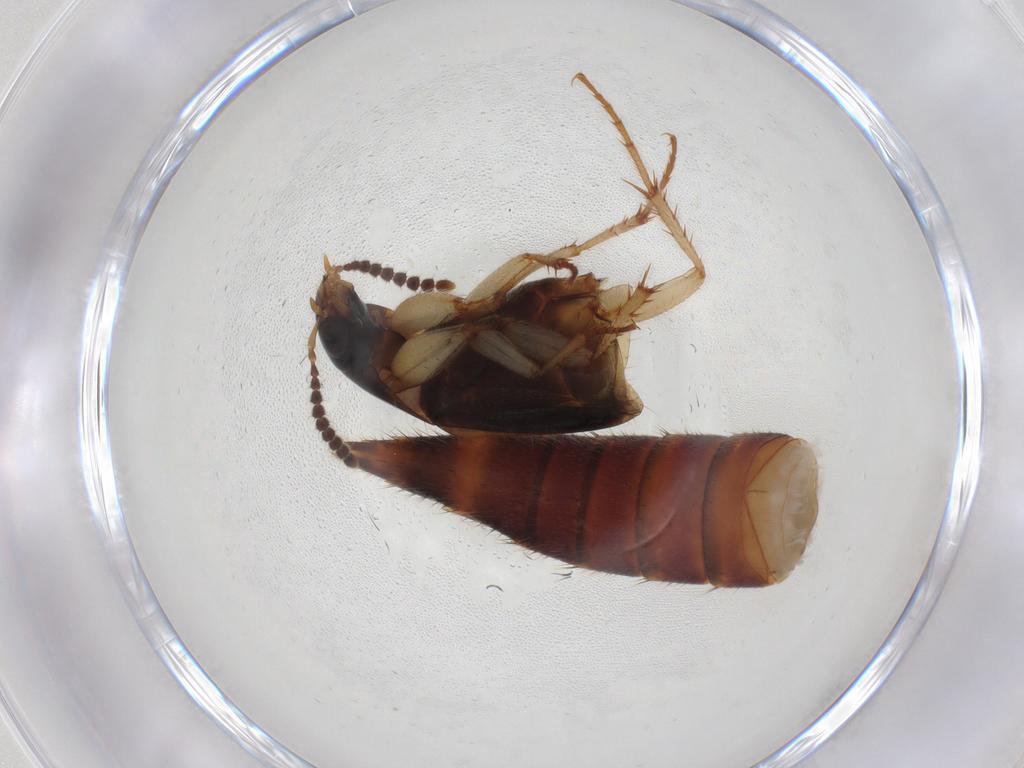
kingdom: Animalia
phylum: Arthropoda
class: Insecta
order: Coleoptera
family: Staphylinidae
